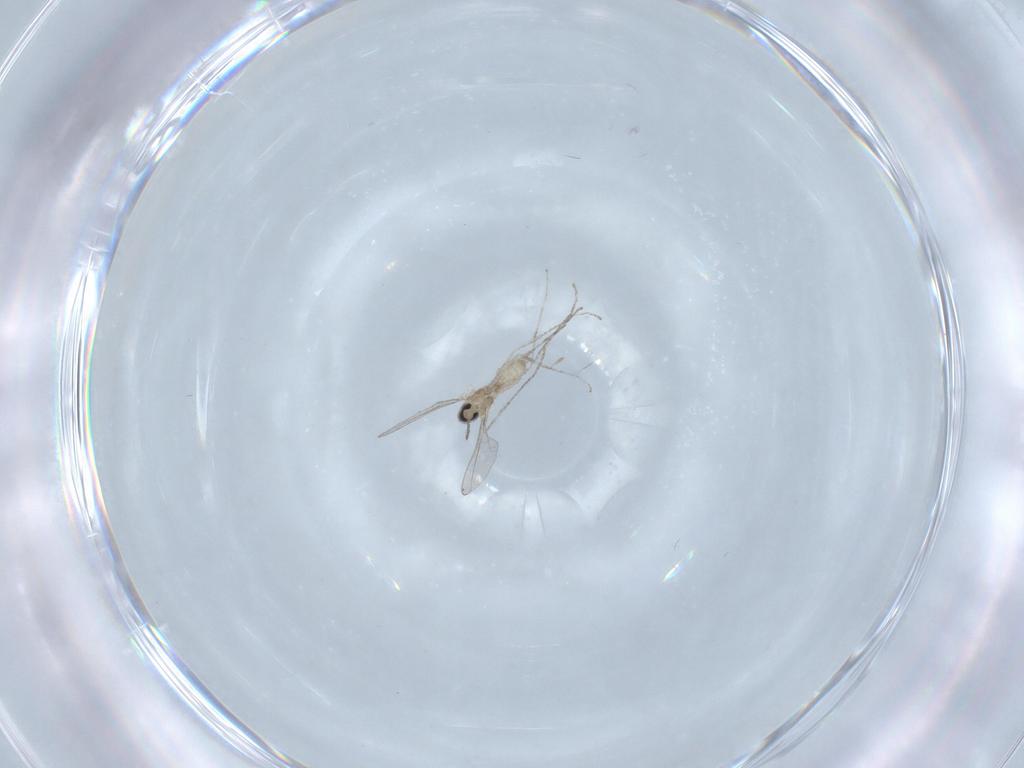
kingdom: Animalia
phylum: Arthropoda
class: Insecta
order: Diptera
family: Cecidomyiidae
